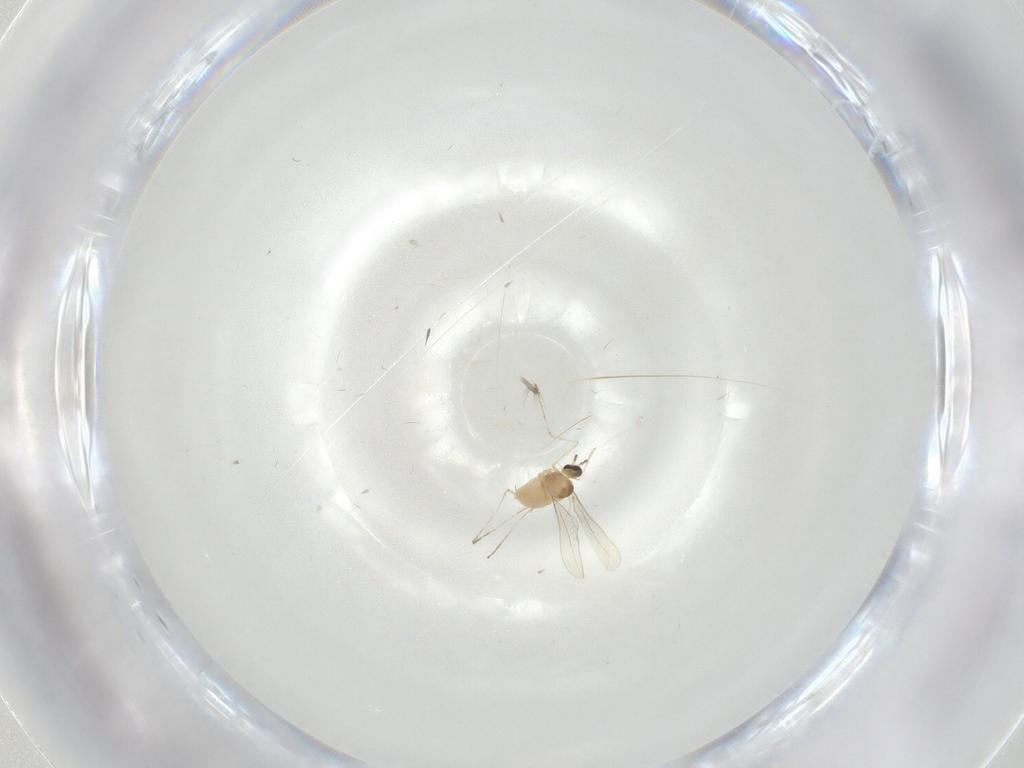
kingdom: Animalia
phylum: Arthropoda
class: Insecta
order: Diptera
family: Cecidomyiidae
